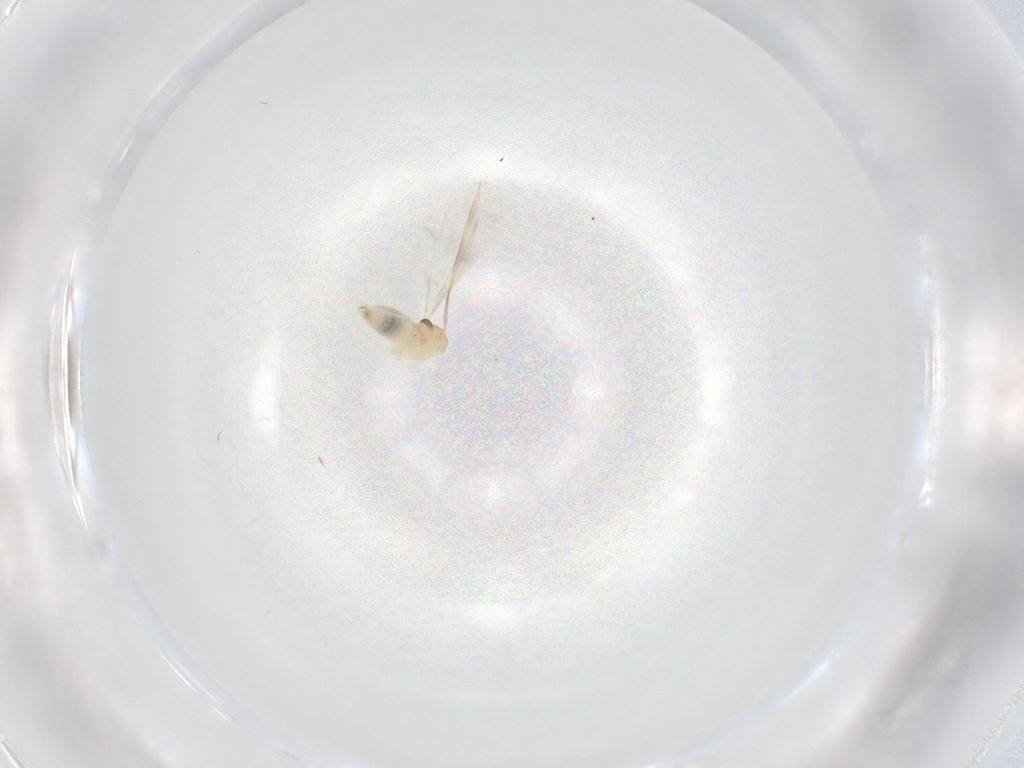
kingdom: Animalia
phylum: Arthropoda
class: Insecta
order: Diptera
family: Cecidomyiidae
